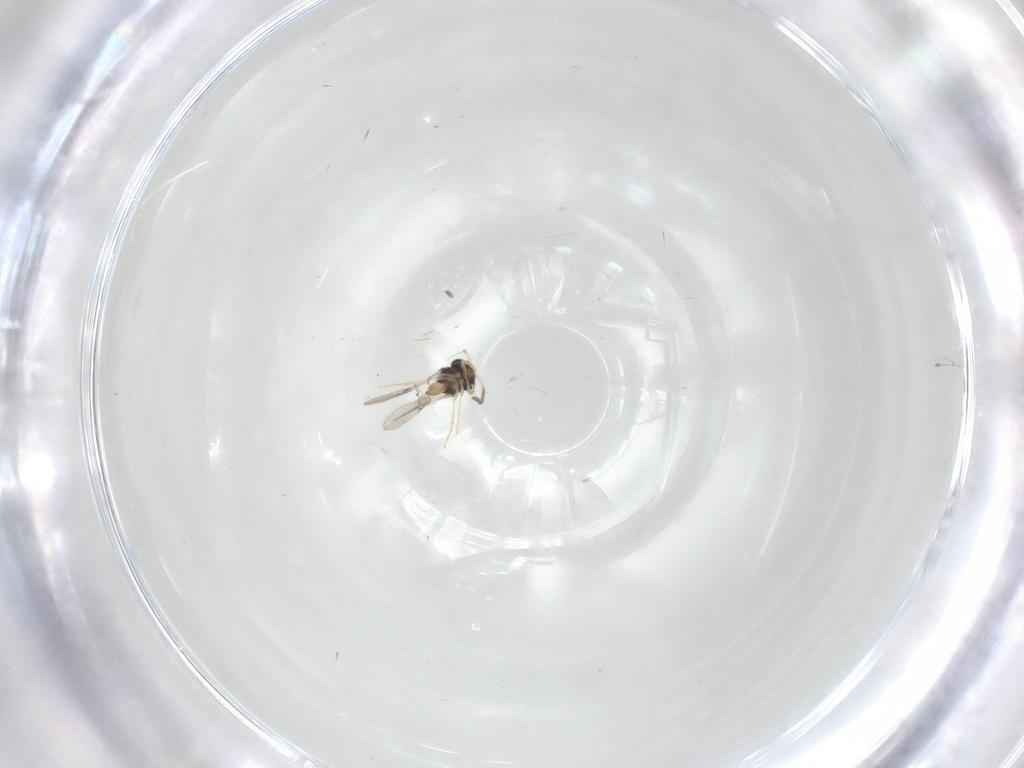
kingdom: Animalia
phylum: Arthropoda
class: Insecta
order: Hymenoptera
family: Scelionidae
